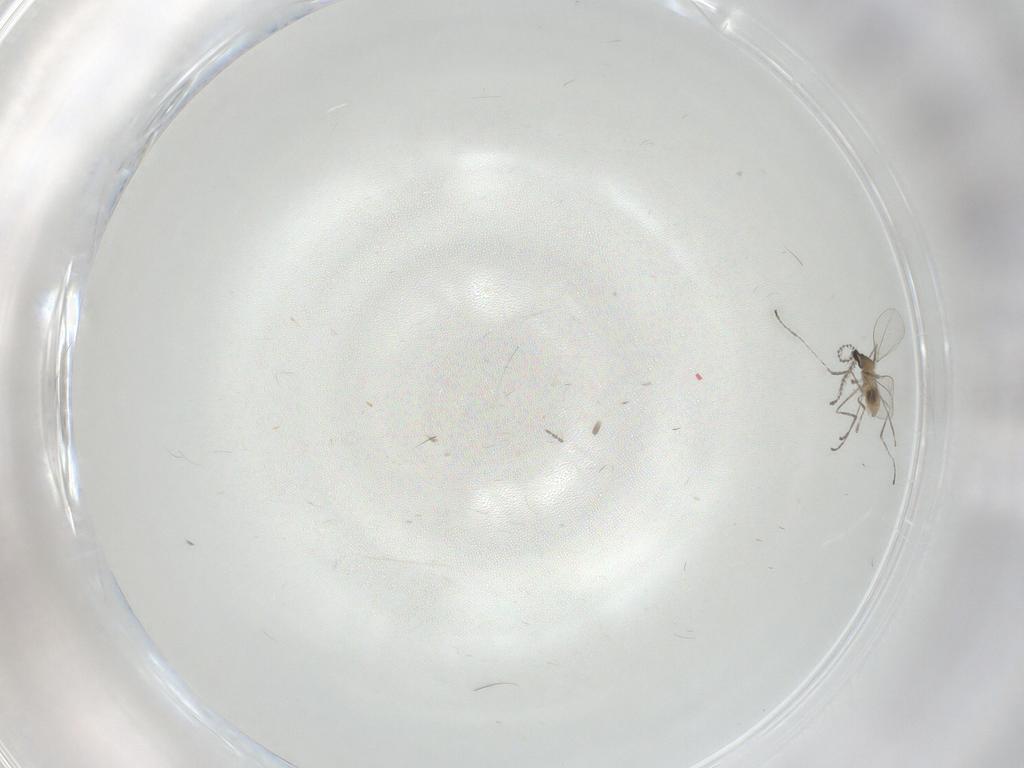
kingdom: Animalia
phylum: Arthropoda
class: Insecta
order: Diptera
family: Cecidomyiidae
